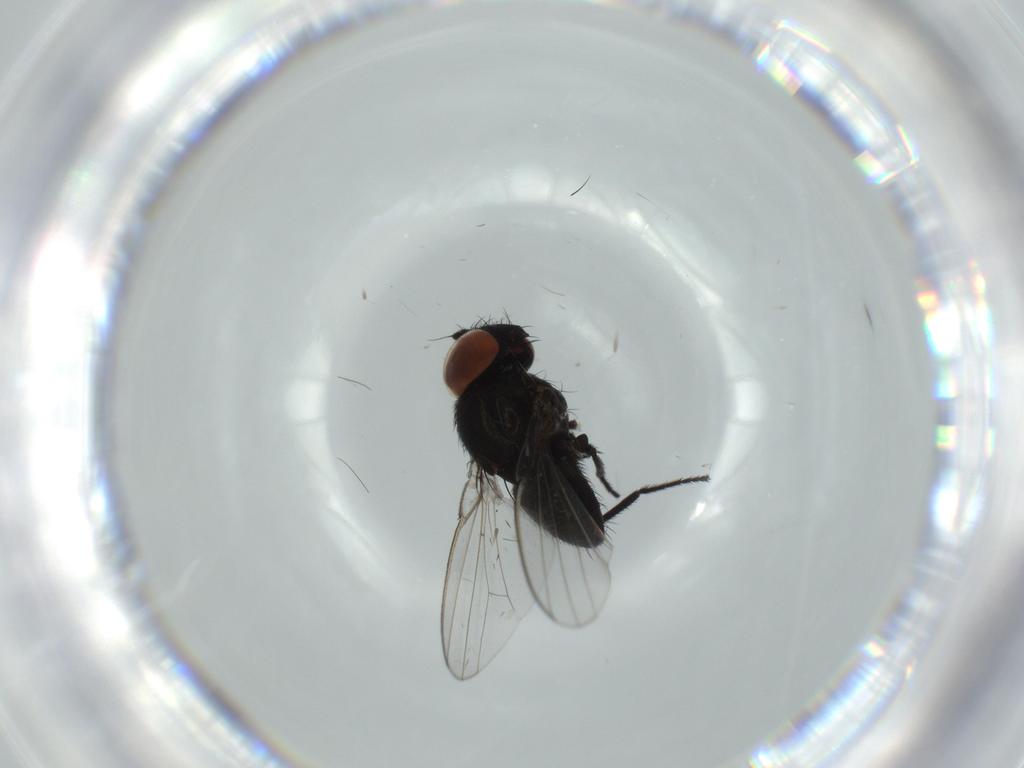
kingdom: Animalia
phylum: Arthropoda
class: Insecta
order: Diptera
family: Milichiidae
